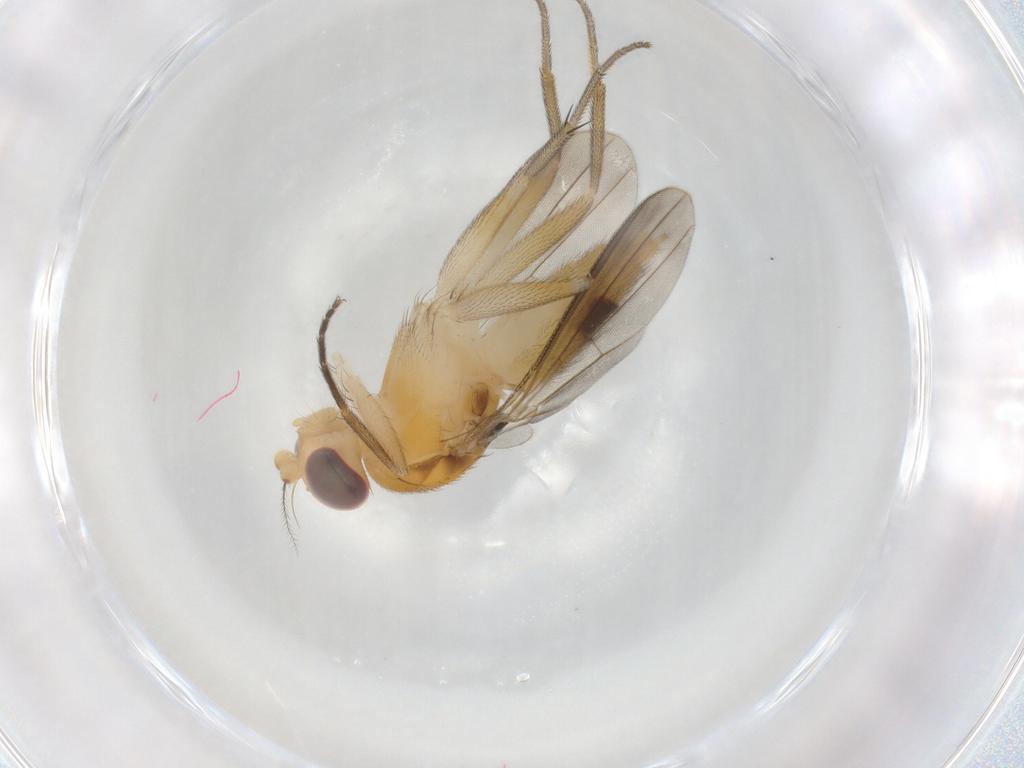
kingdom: Animalia
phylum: Arthropoda
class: Insecta
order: Diptera
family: Agromyzidae
